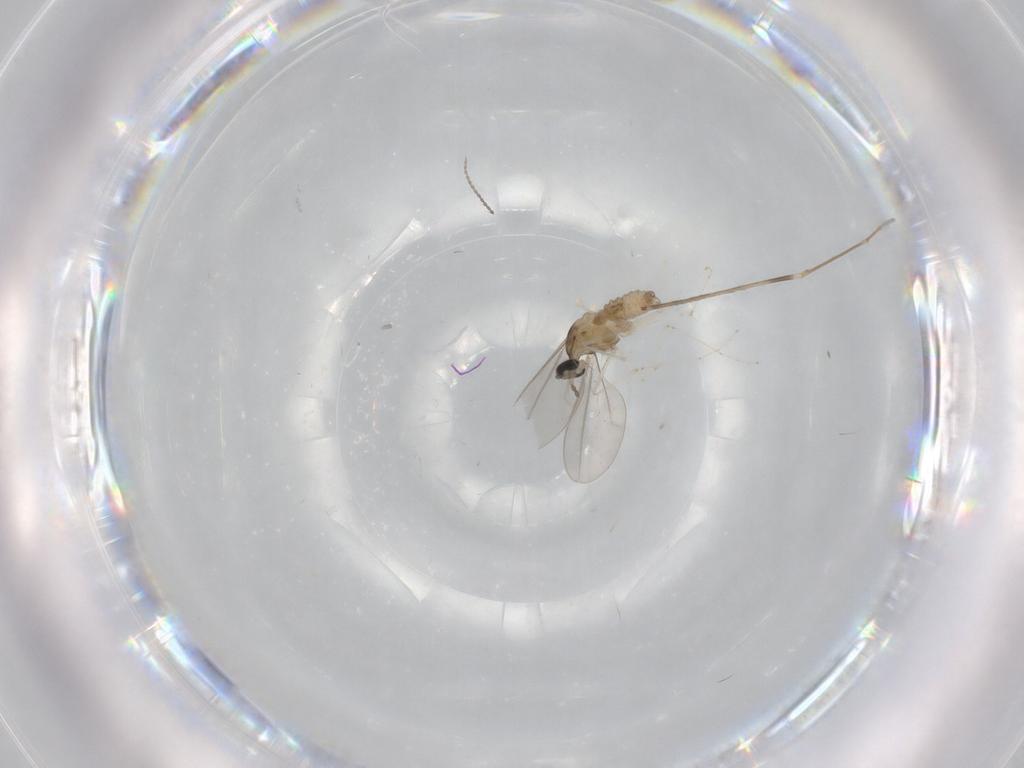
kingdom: Animalia
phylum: Arthropoda
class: Insecta
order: Diptera
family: Cecidomyiidae
